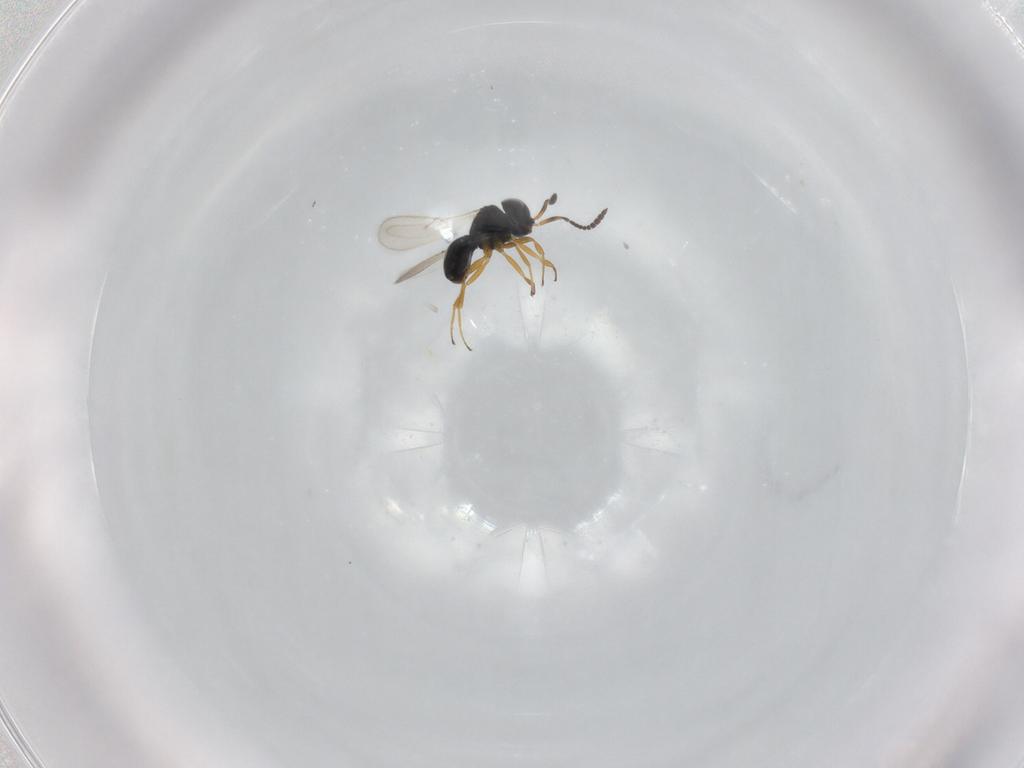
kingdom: Animalia
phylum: Arthropoda
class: Insecta
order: Hymenoptera
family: Scelionidae
